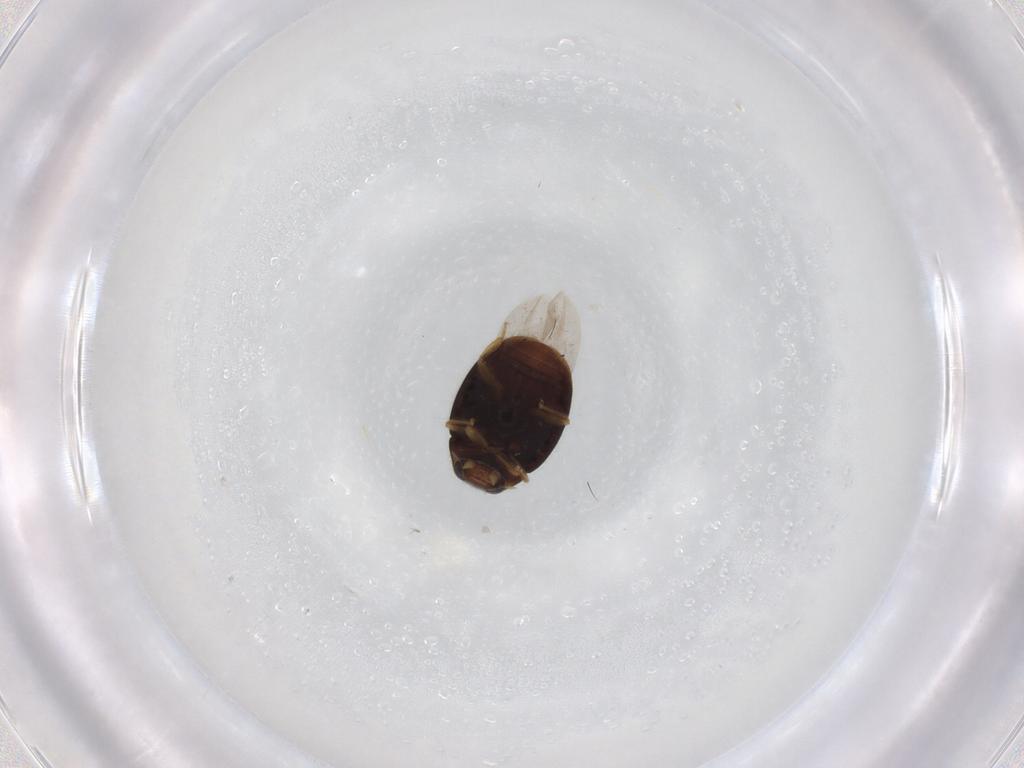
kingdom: Animalia
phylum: Arthropoda
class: Insecta
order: Coleoptera
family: Coccinellidae
